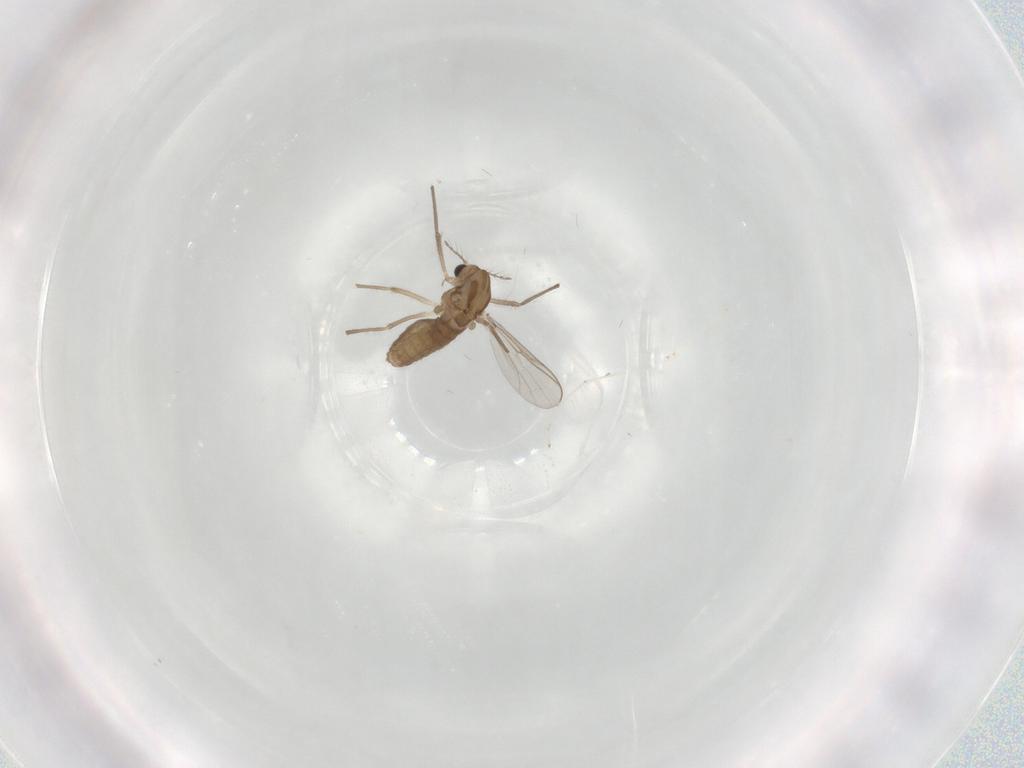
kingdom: Animalia
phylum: Arthropoda
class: Insecta
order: Diptera
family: Chironomidae
